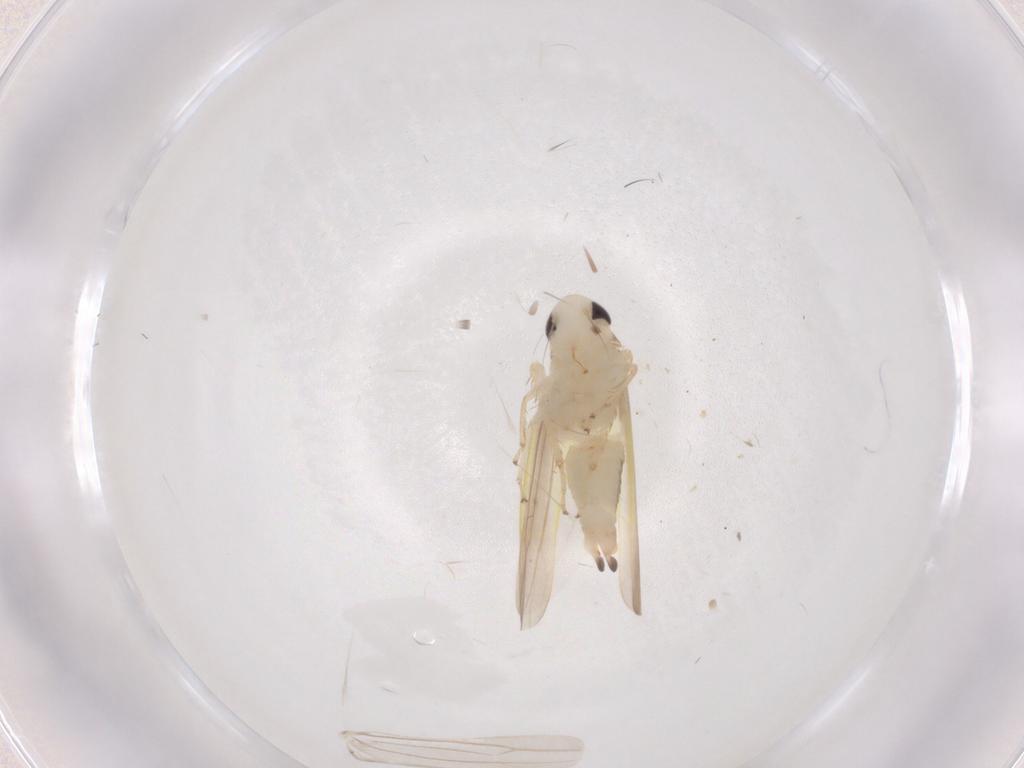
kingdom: Animalia
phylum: Arthropoda
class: Insecta
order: Hemiptera
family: Cicadellidae
